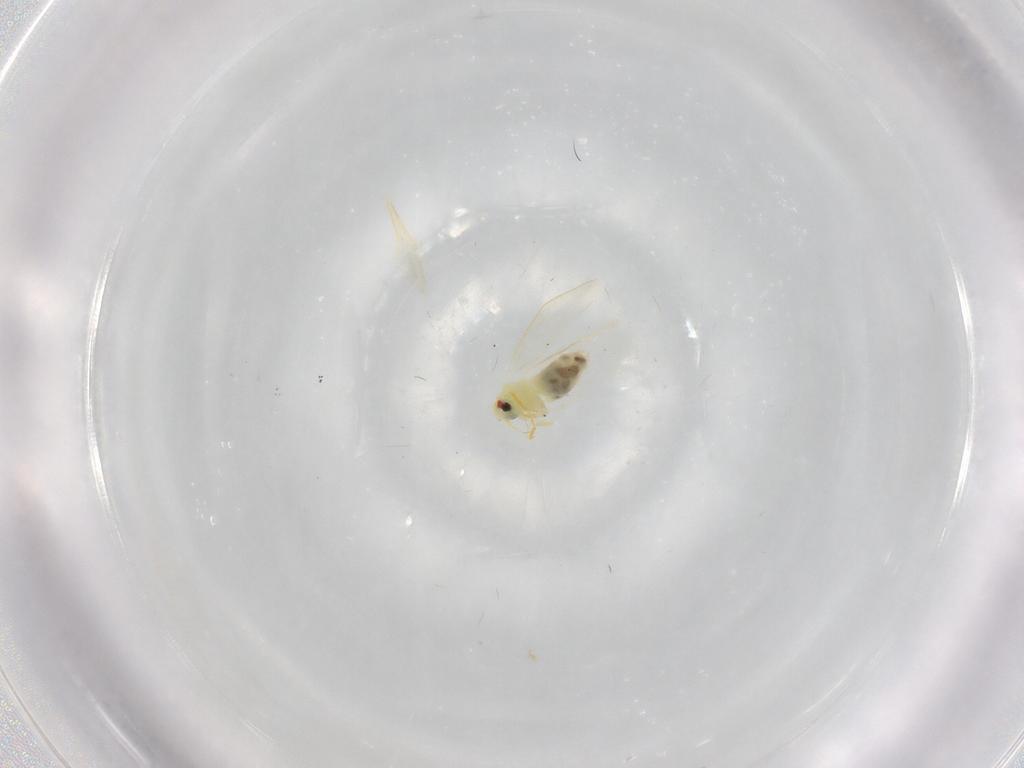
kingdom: Animalia
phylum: Arthropoda
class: Insecta
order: Hemiptera
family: Aleyrodidae
